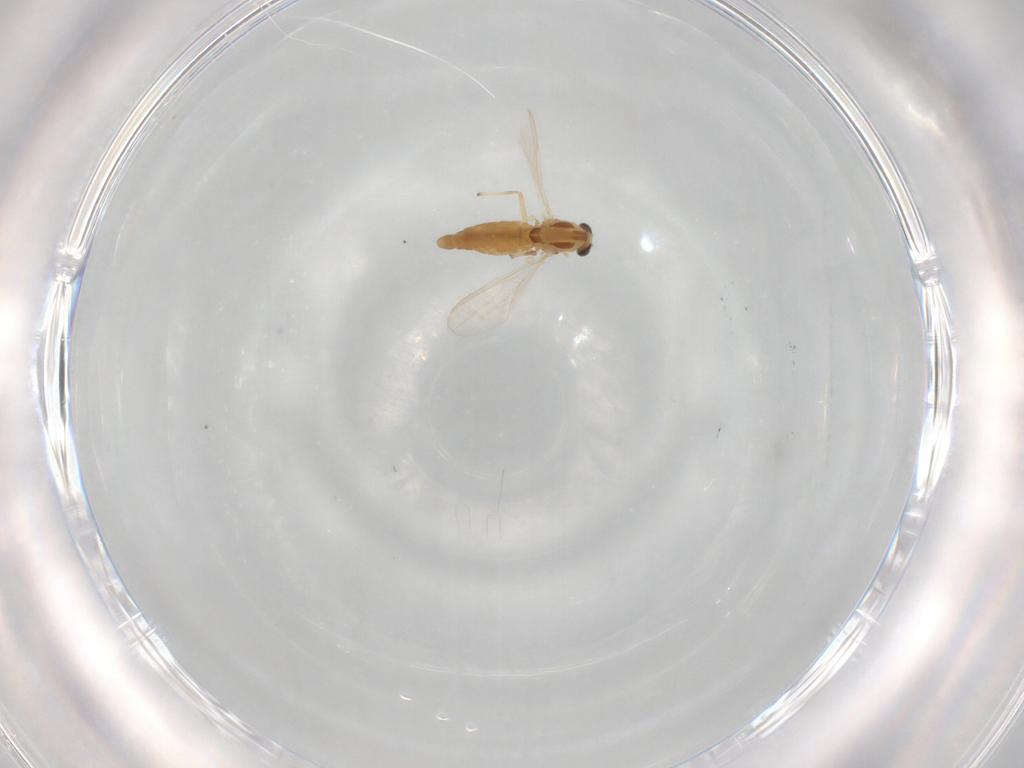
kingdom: Animalia
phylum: Arthropoda
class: Insecta
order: Diptera
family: Chironomidae
